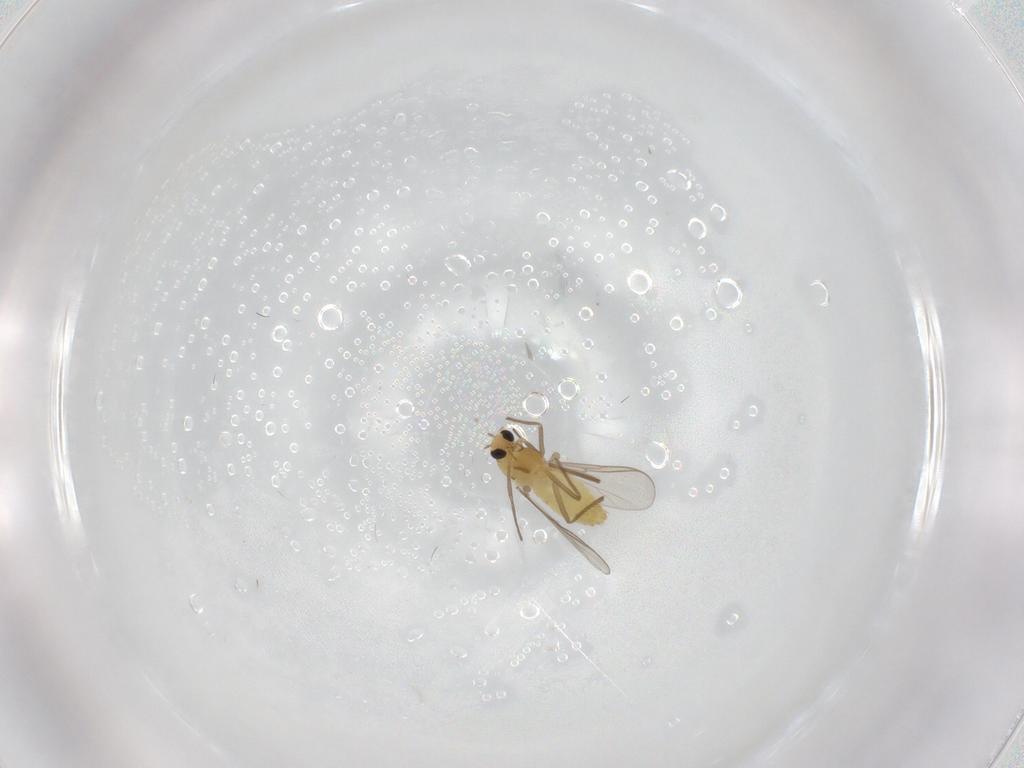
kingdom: Animalia
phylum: Arthropoda
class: Insecta
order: Diptera
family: Chironomidae
